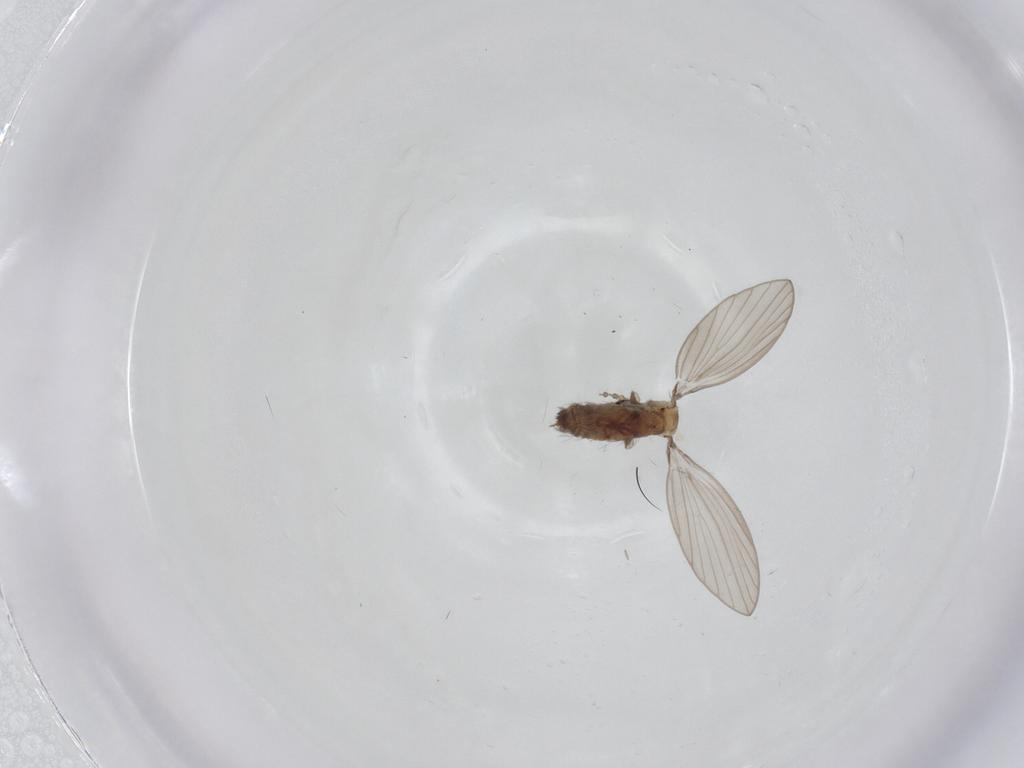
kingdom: Animalia
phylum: Arthropoda
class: Insecta
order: Diptera
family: Psychodidae
